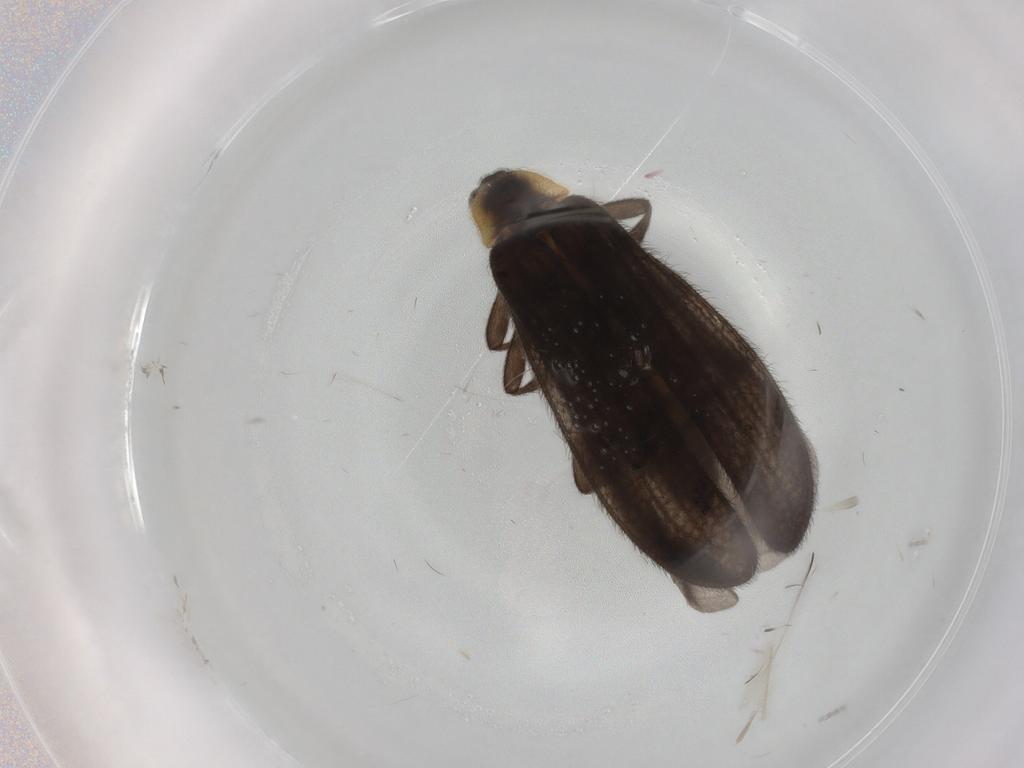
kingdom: Animalia
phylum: Arthropoda
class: Insecta
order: Coleoptera
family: Lycidae
